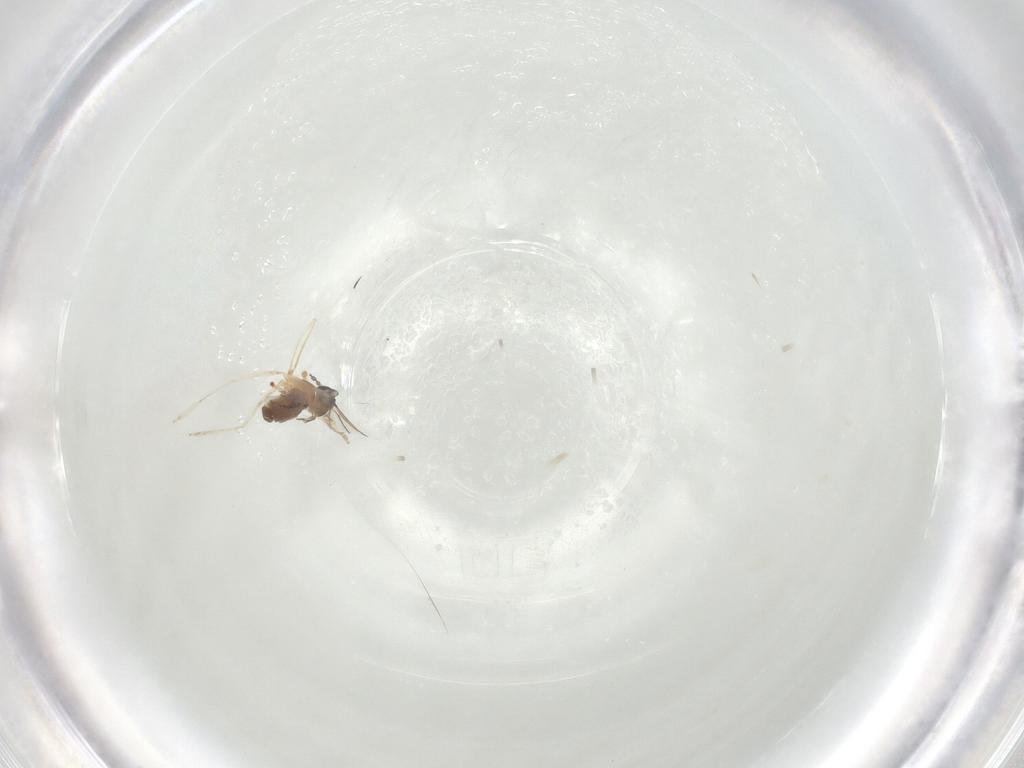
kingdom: Animalia
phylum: Arthropoda
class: Insecta
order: Diptera
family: Cecidomyiidae
